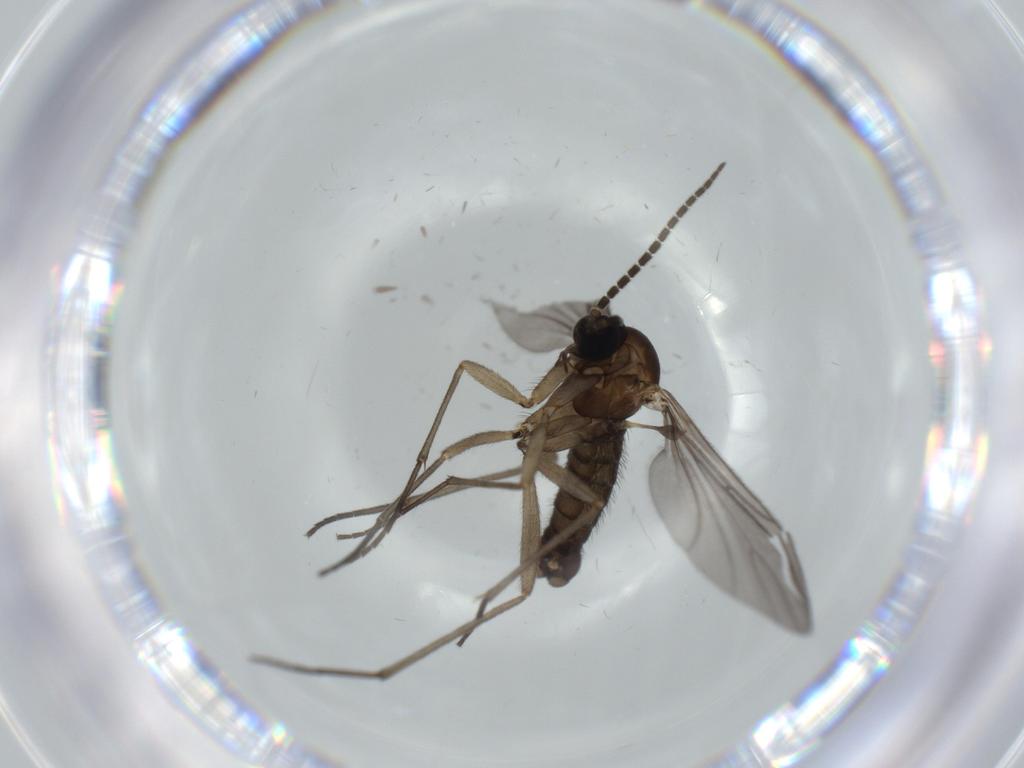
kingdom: Animalia
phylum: Arthropoda
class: Insecta
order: Diptera
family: Sciaridae
